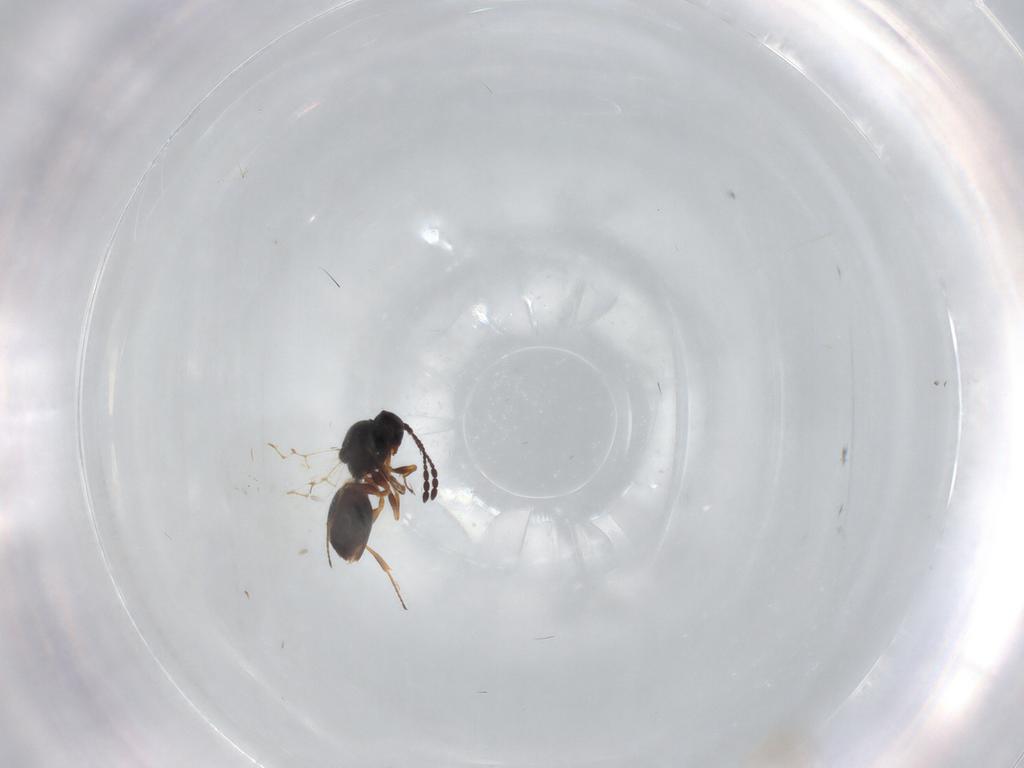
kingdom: Animalia
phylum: Arthropoda
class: Insecta
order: Hymenoptera
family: Figitidae
